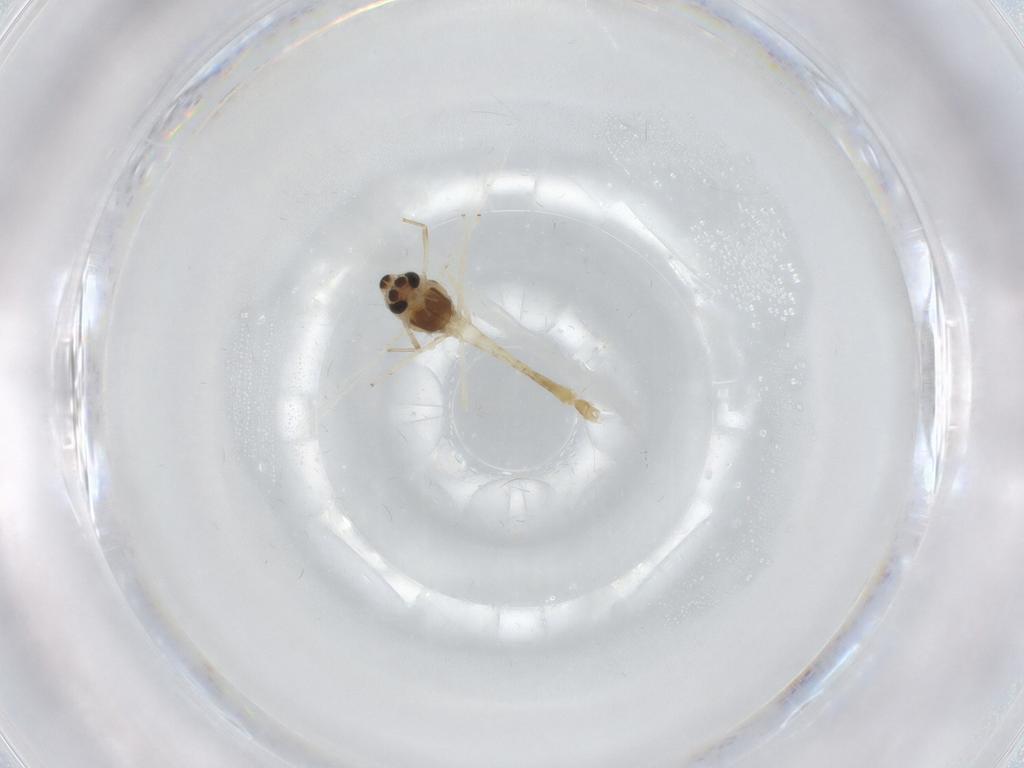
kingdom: Animalia
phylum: Arthropoda
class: Insecta
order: Diptera
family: Chironomidae
